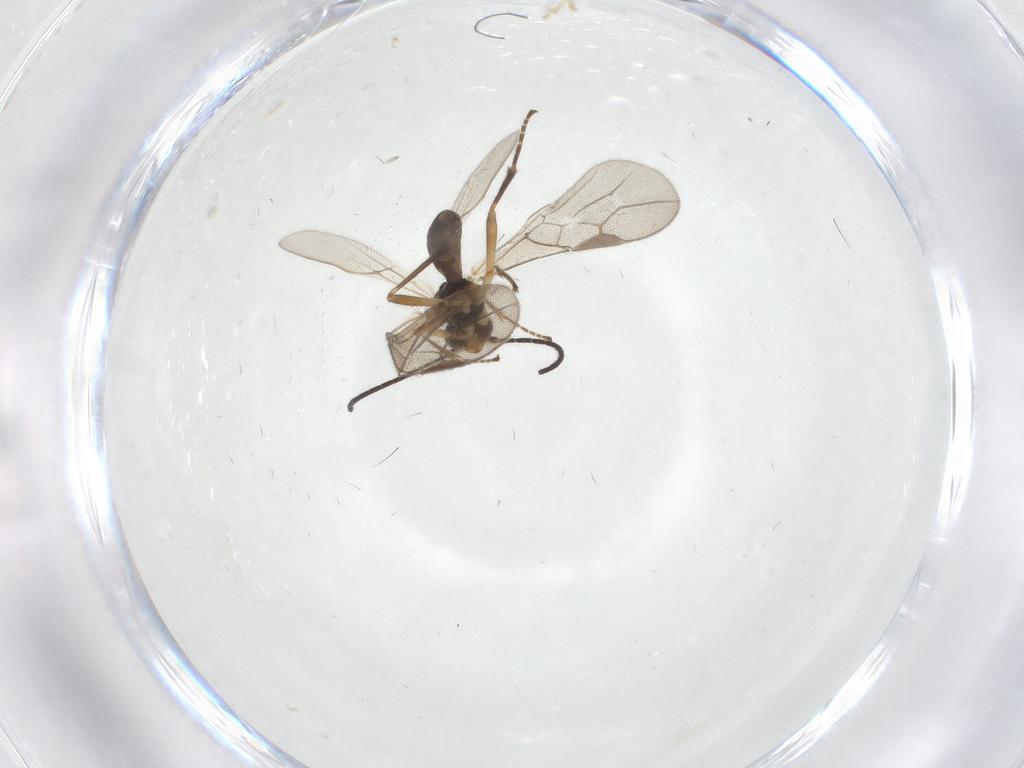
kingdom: Animalia
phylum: Arthropoda
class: Insecta
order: Hymenoptera
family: Braconidae
